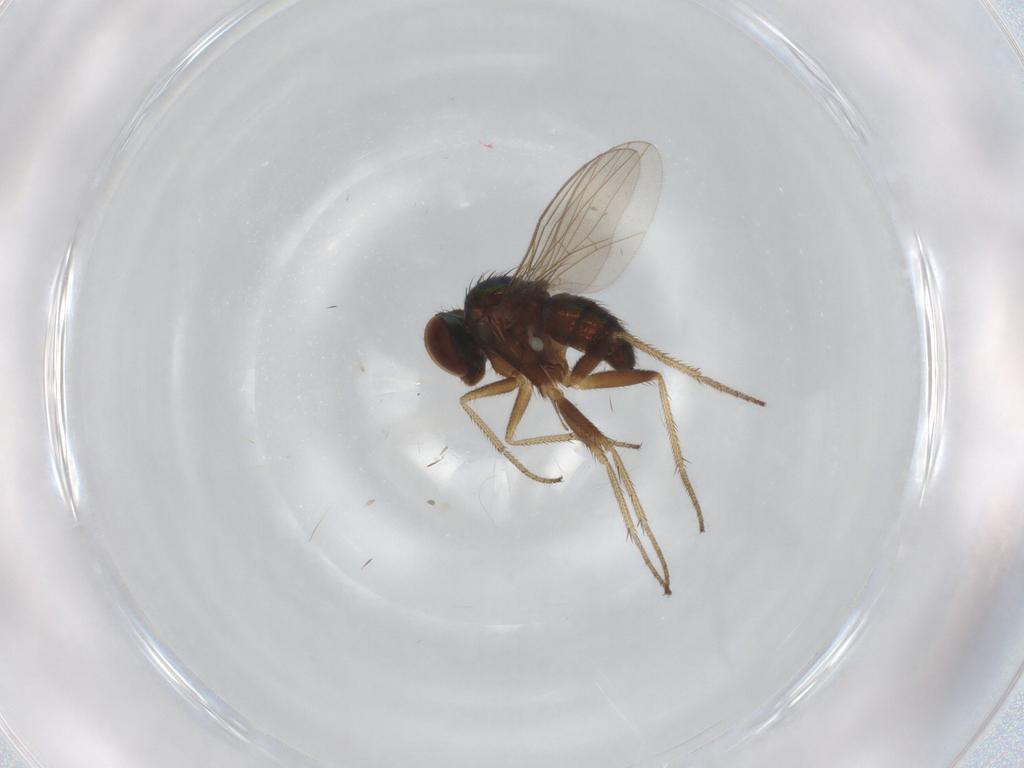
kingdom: Animalia
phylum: Arthropoda
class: Insecta
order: Diptera
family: Dolichopodidae
